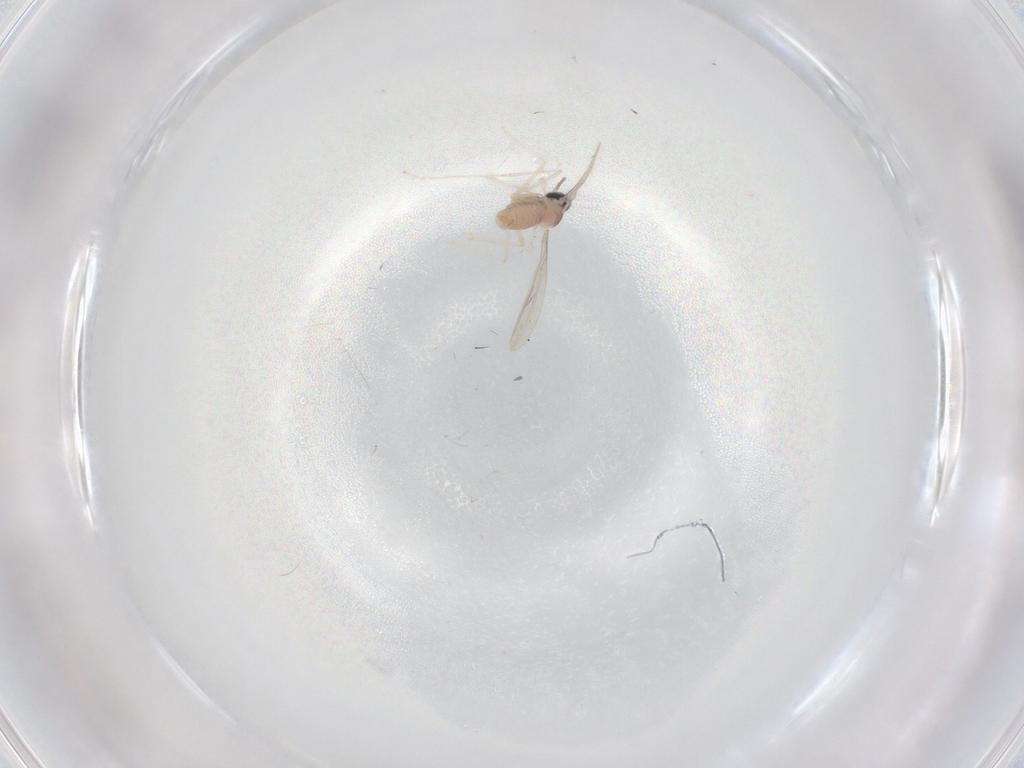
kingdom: Animalia
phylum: Arthropoda
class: Insecta
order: Diptera
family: Dolichopodidae
